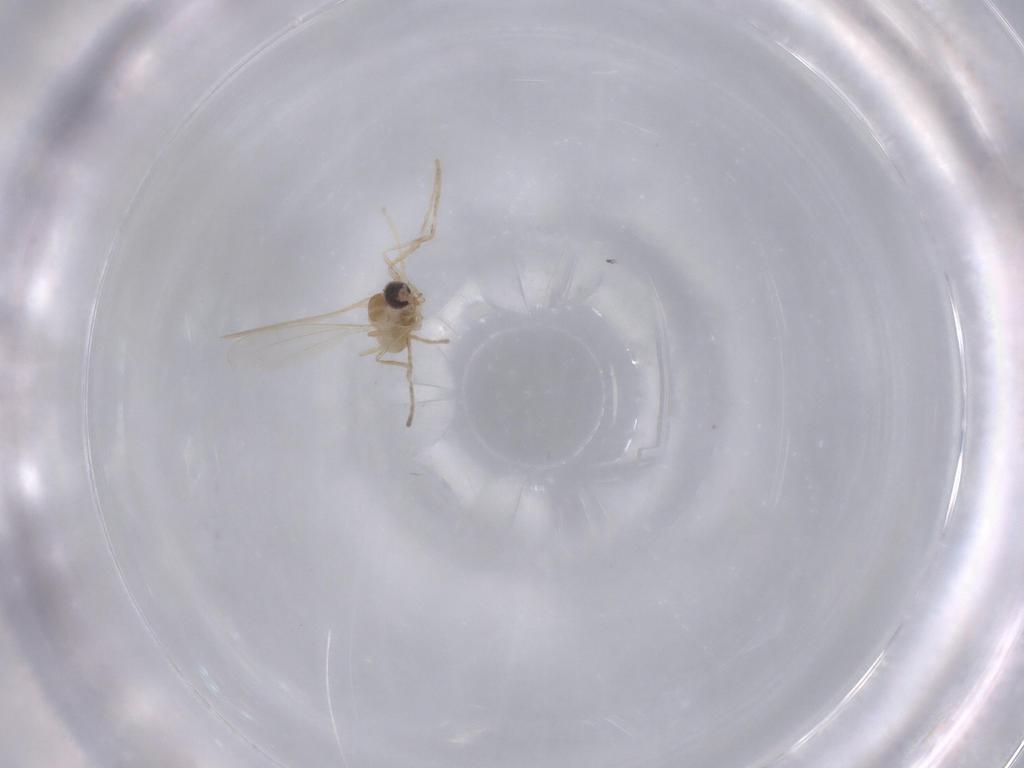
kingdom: Animalia
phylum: Arthropoda
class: Insecta
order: Diptera
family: Cecidomyiidae
